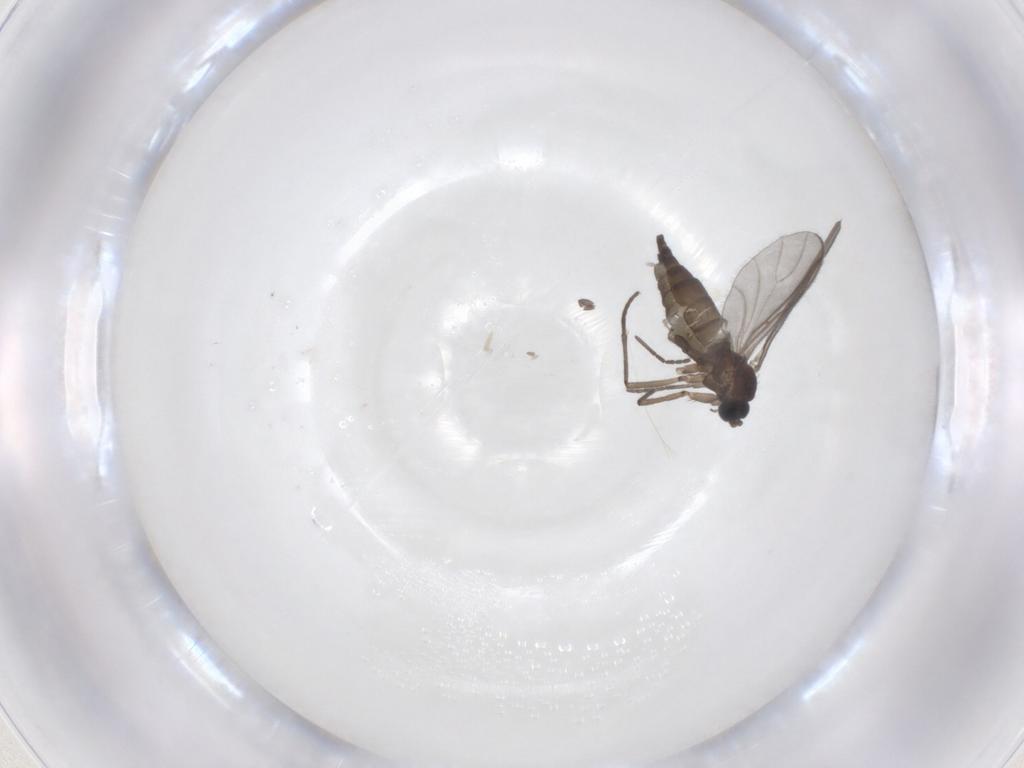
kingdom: Animalia
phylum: Arthropoda
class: Insecta
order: Diptera
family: Sciaridae
